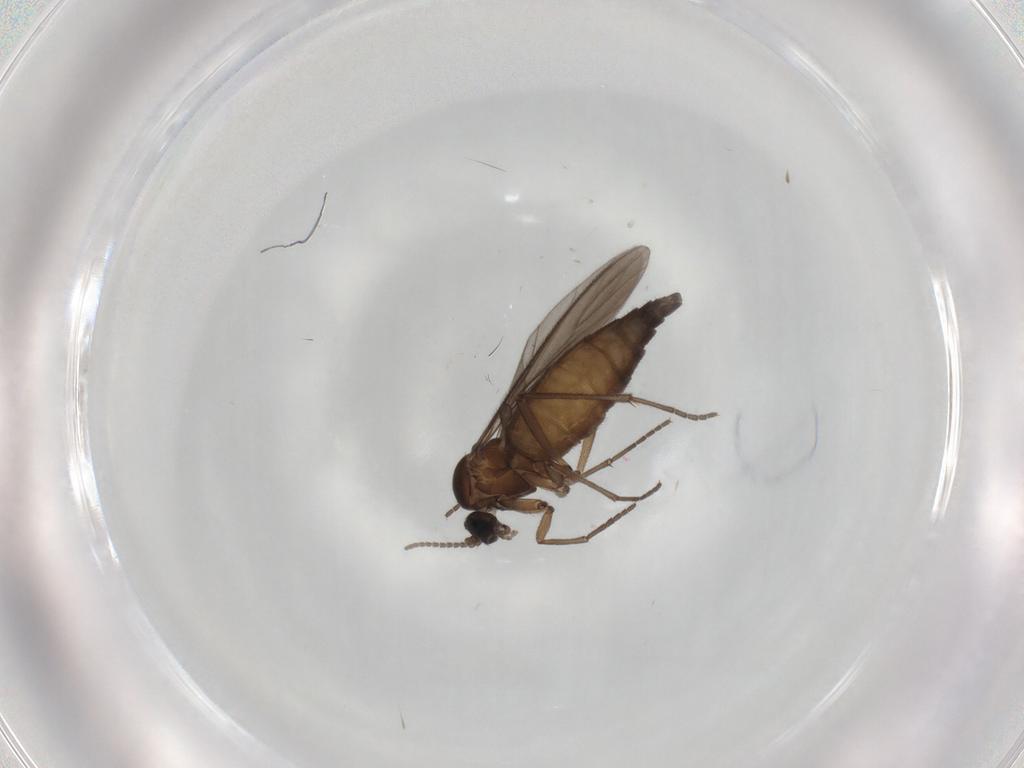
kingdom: Animalia
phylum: Arthropoda
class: Insecta
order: Diptera
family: Sciaridae
